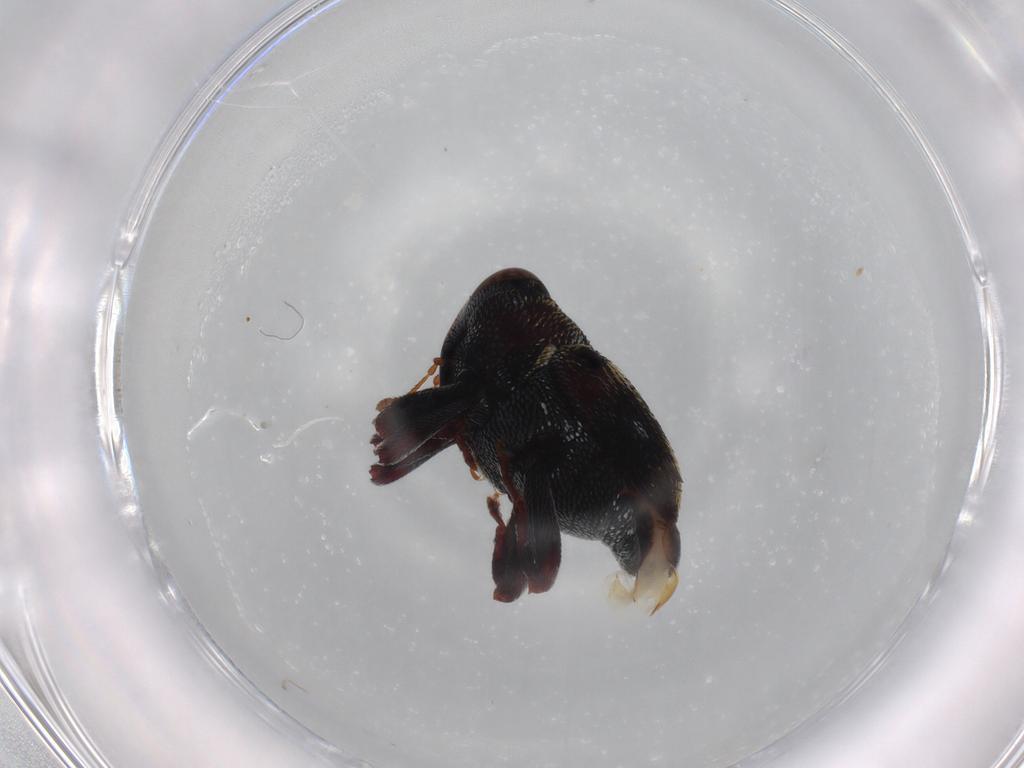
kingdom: Animalia
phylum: Arthropoda
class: Insecta
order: Coleoptera
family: Curculionidae
